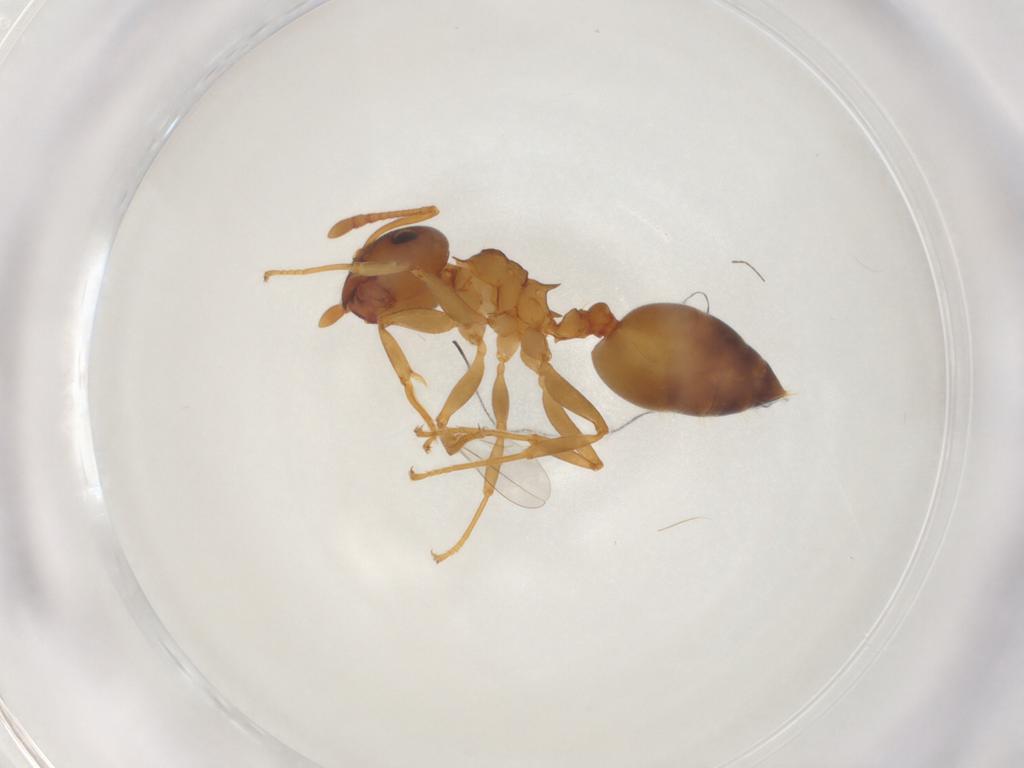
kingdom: Animalia
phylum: Arthropoda
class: Insecta
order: Hymenoptera
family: Mymaridae
